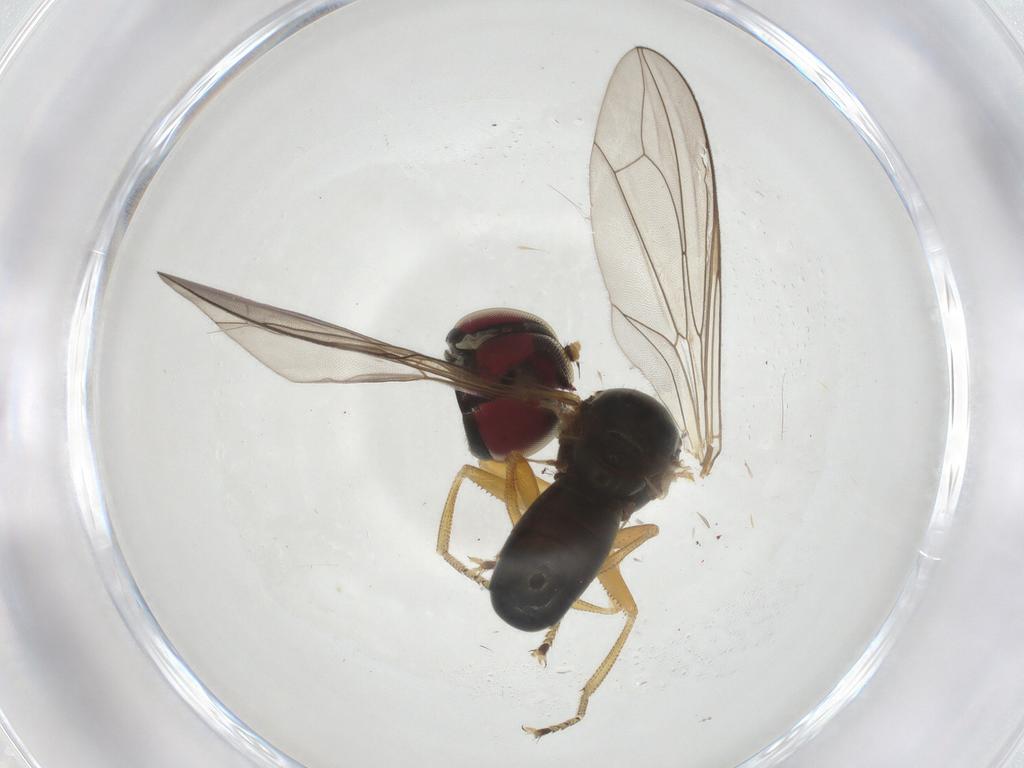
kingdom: Animalia
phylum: Arthropoda
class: Insecta
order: Diptera
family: Pipunculidae
